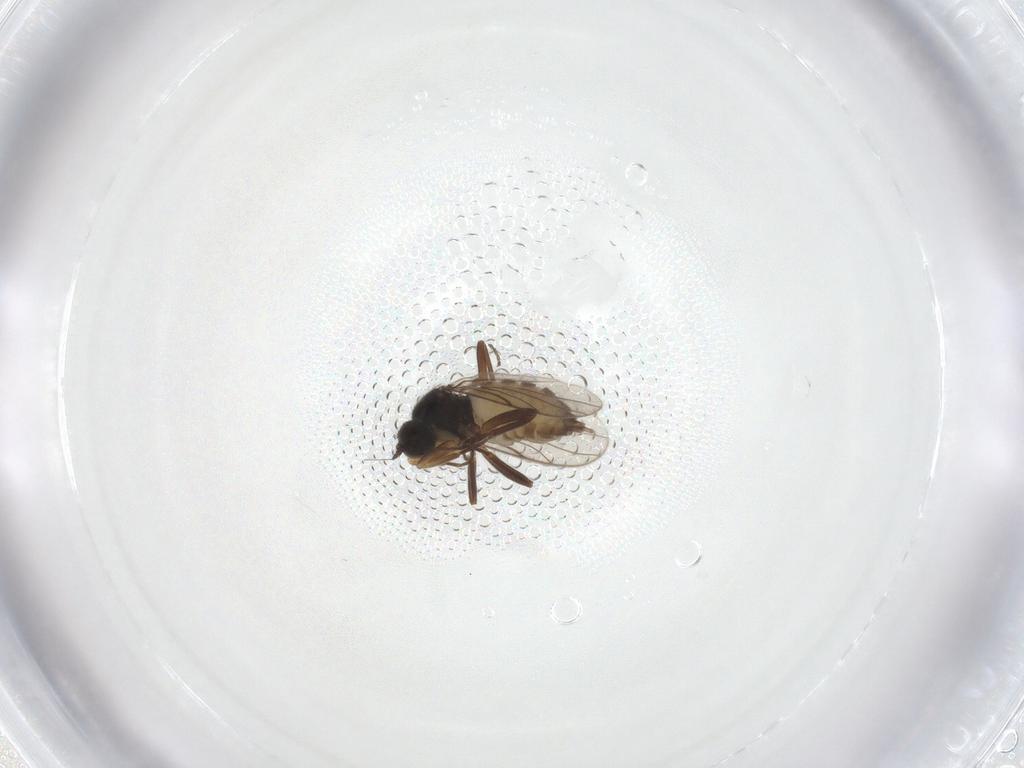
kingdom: Animalia
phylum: Arthropoda
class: Insecta
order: Diptera
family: Hybotidae
